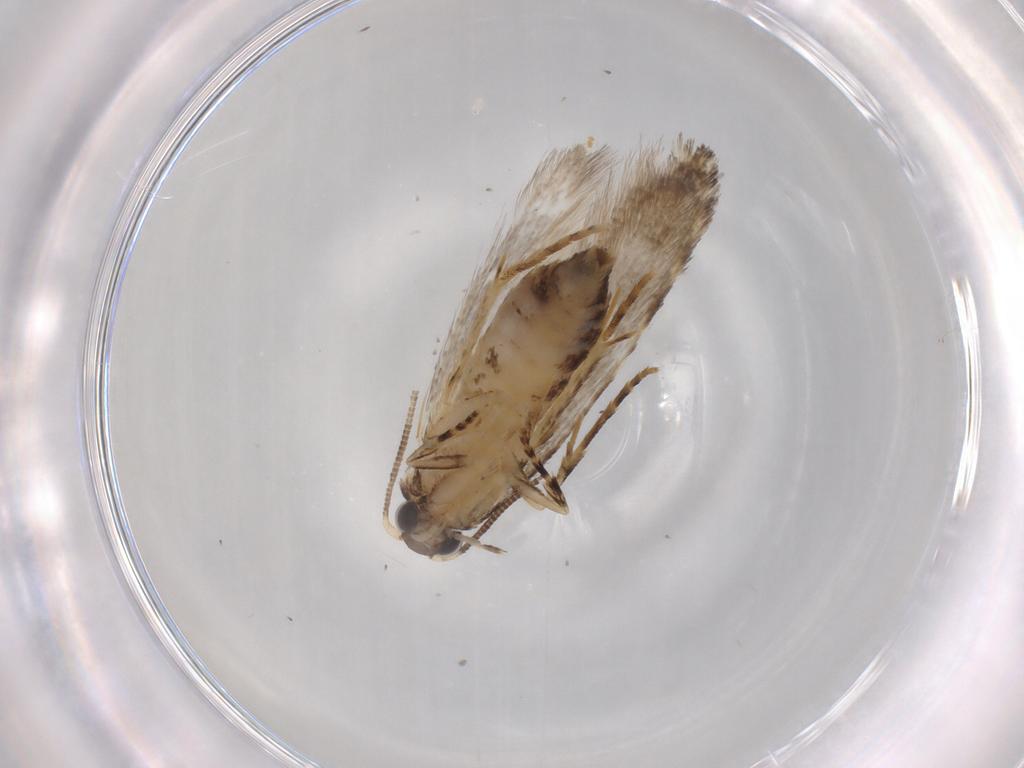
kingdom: Animalia
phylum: Arthropoda
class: Insecta
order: Lepidoptera
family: Tineidae
